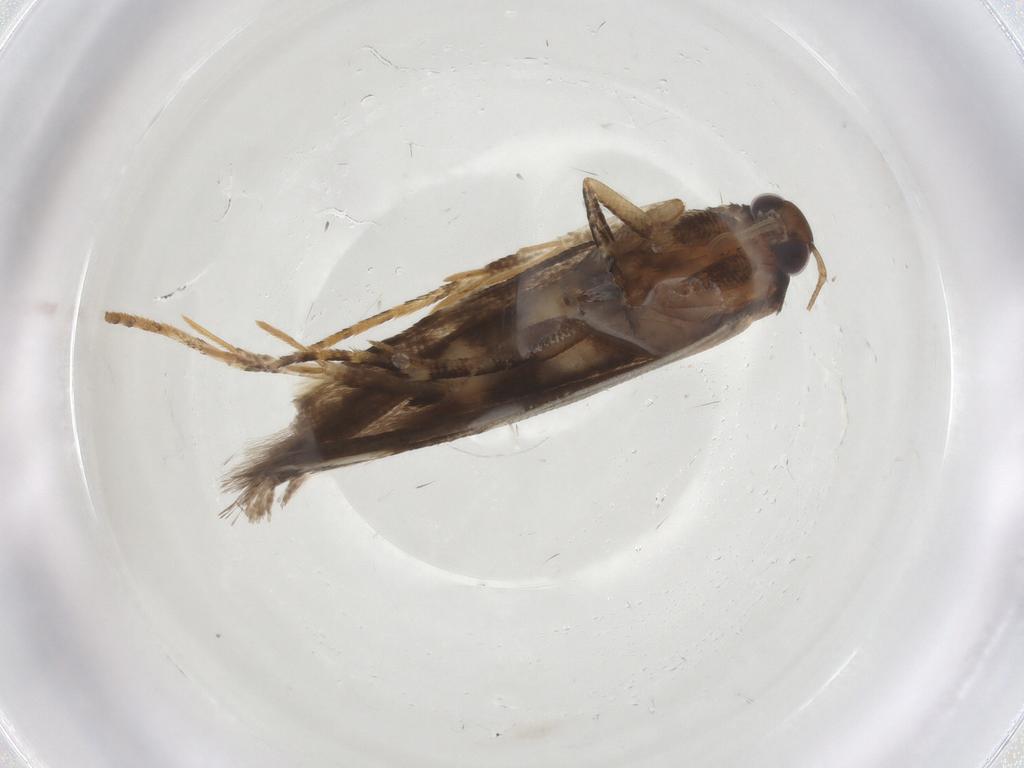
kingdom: Animalia
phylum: Arthropoda
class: Insecta
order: Lepidoptera
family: Gelechiidae
